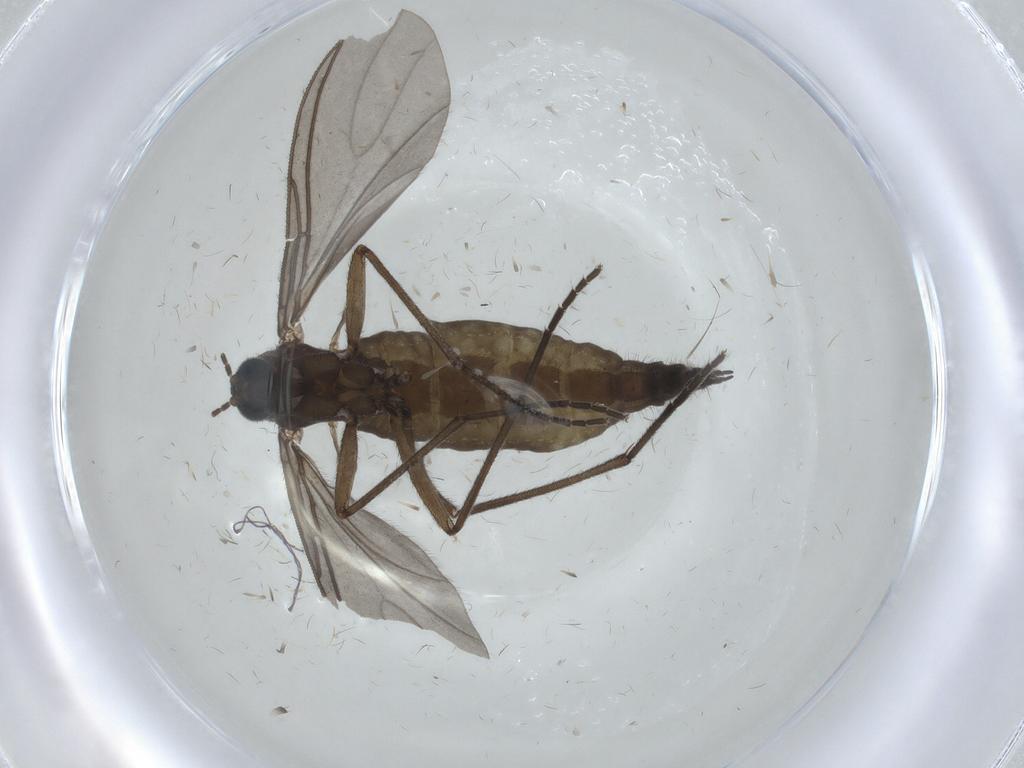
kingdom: Animalia
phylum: Arthropoda
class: Insecta
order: Diptera
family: Sciaridae
